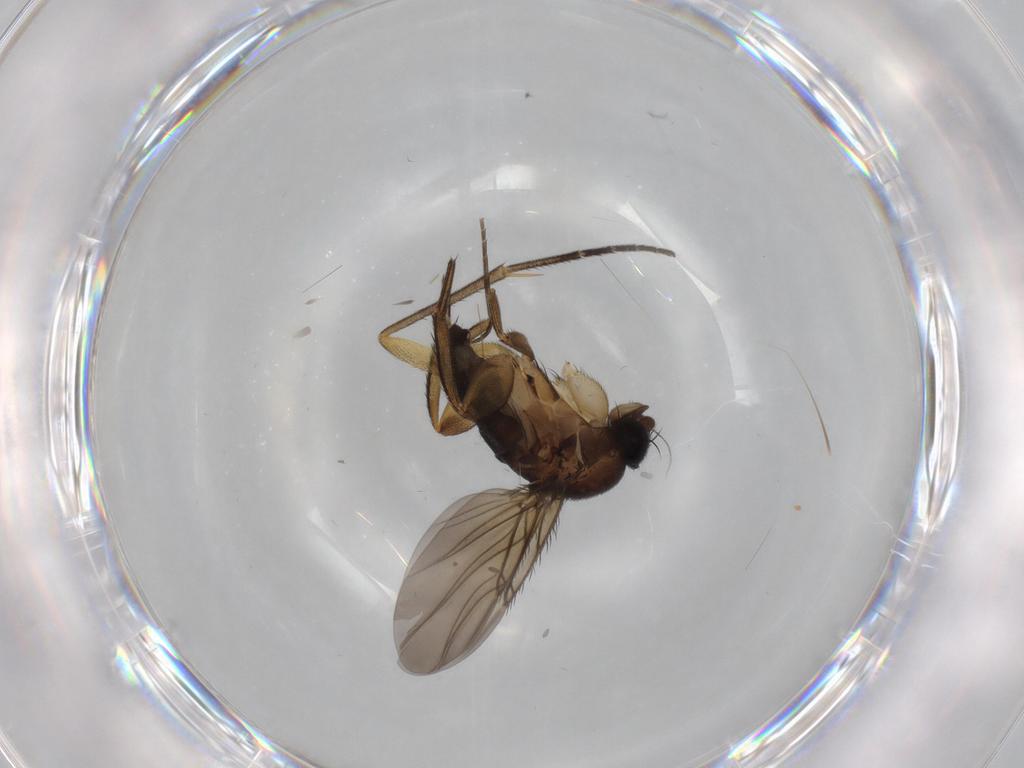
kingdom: Animalia
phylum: Arthropoda
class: Insecta
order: Diptera
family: Phoridae
